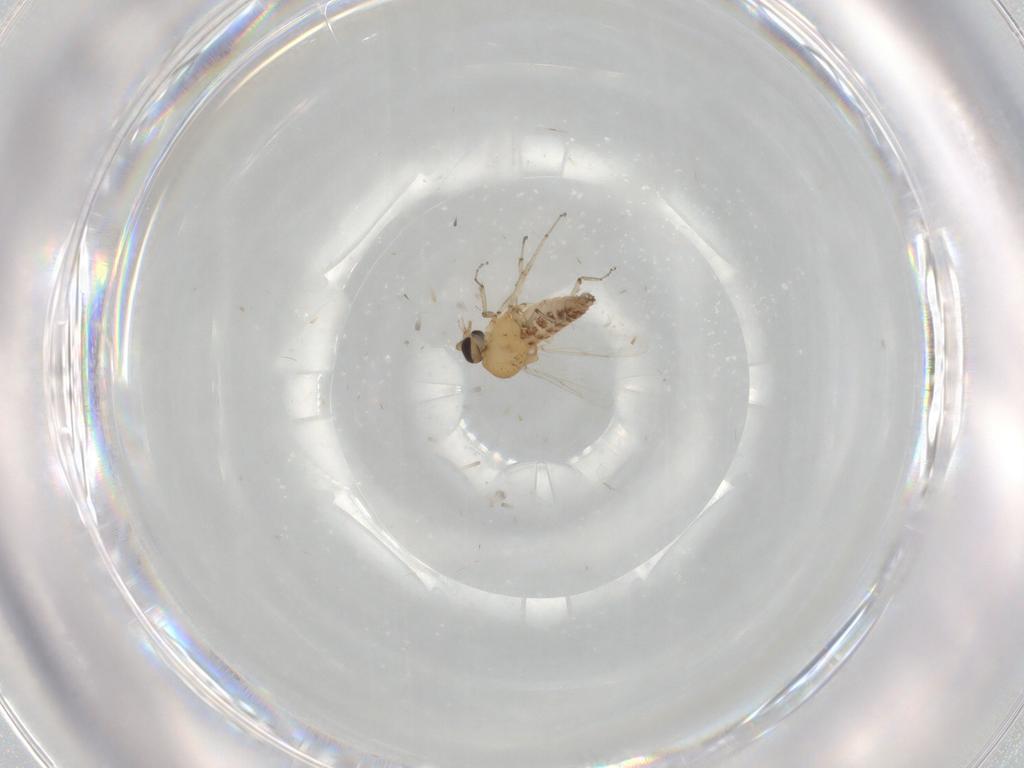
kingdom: Animalia
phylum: Arthropoda
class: Insecta
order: Diptera
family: Ceratopogonidae
